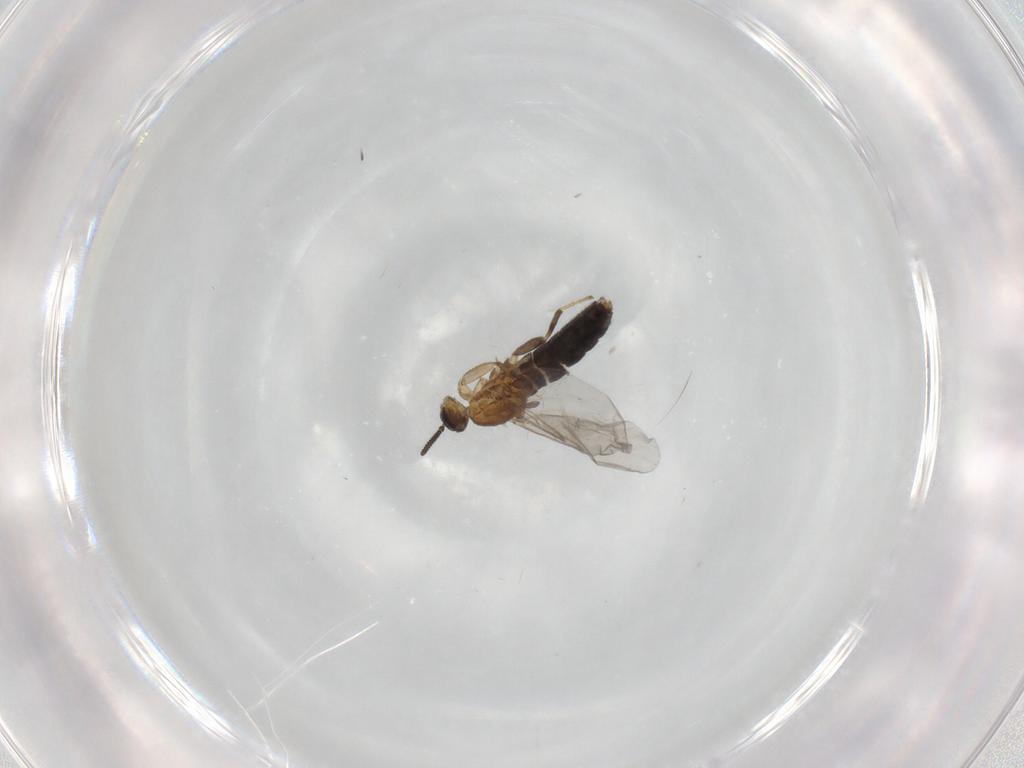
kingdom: Animalia
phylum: Arthropoda
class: Insecta
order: Diptera
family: Scatopsidae
